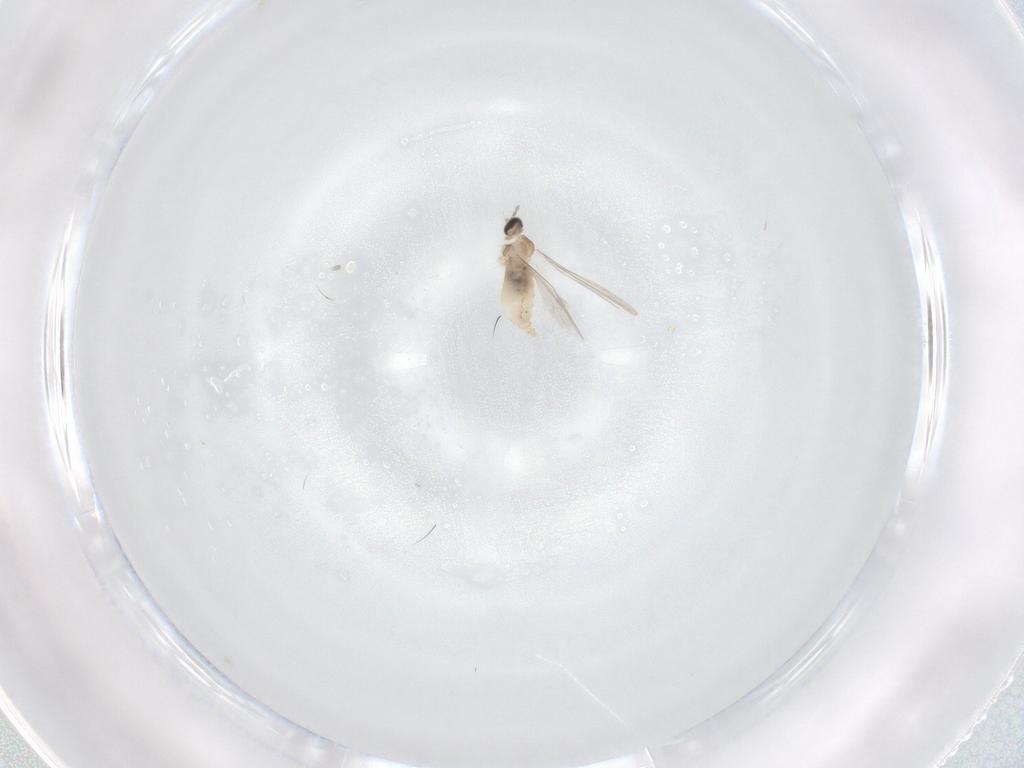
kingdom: Animalia
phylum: Arthropoda
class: Insecta
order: Diptera
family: Cecidomyiidae
